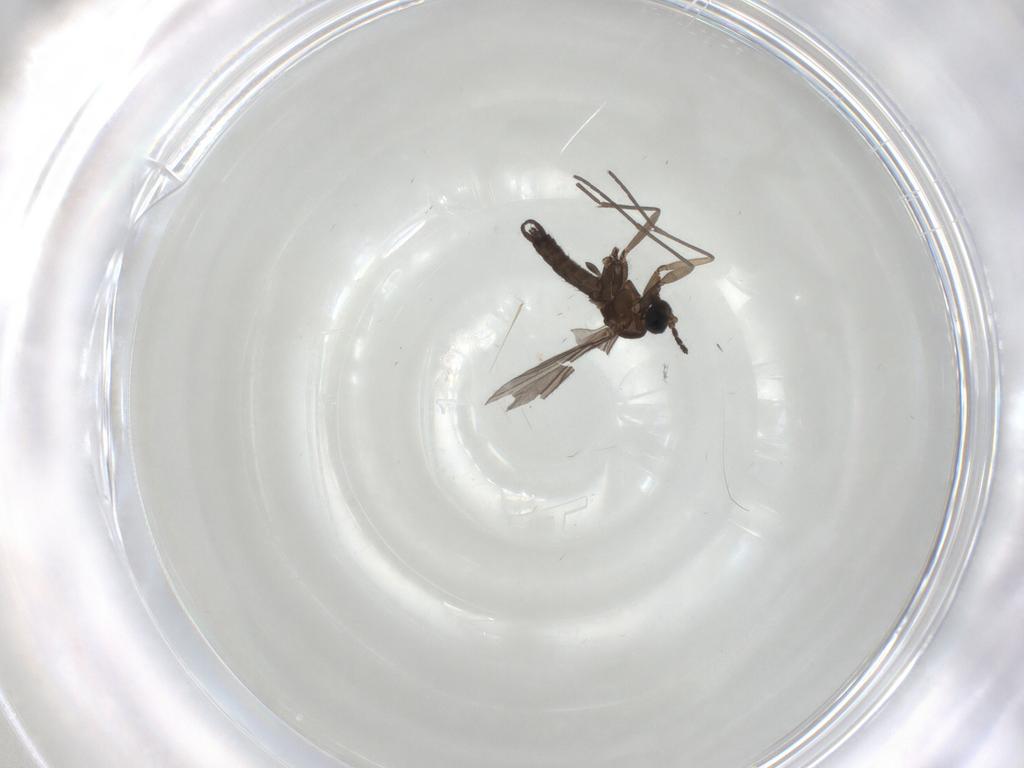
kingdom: Animalia
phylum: Arthropoda
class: Insecta
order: Diptera
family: Sciaridae
